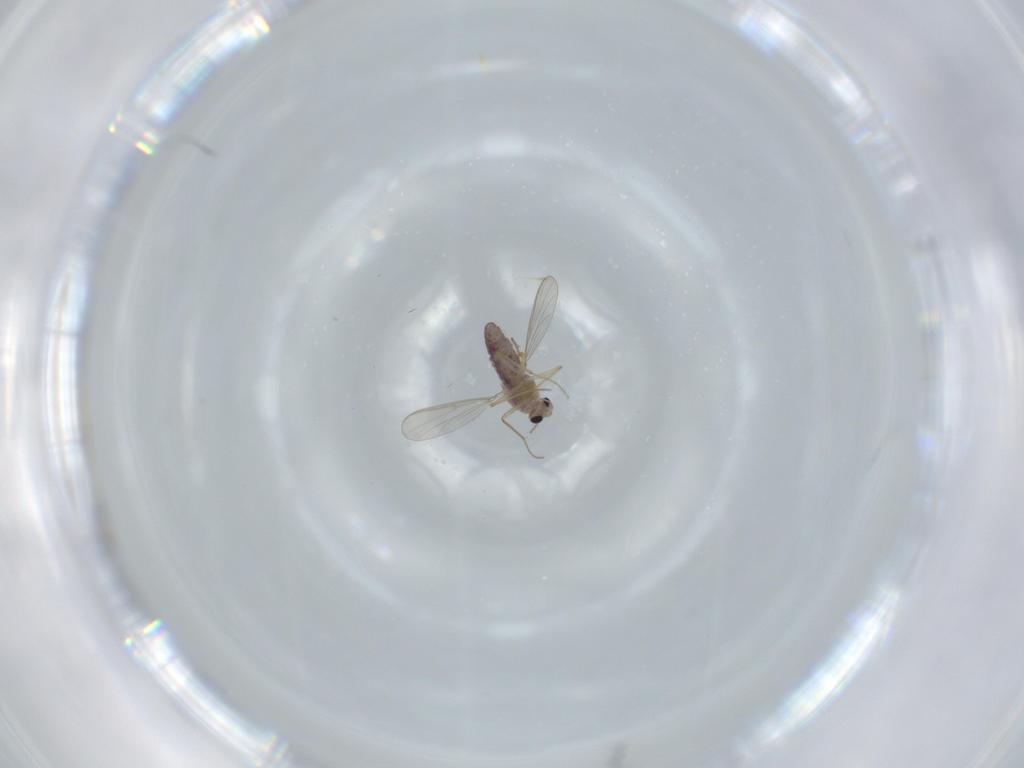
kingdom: Animalia
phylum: Arthropoda
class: Insecta
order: Diptera
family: Chironomidae
